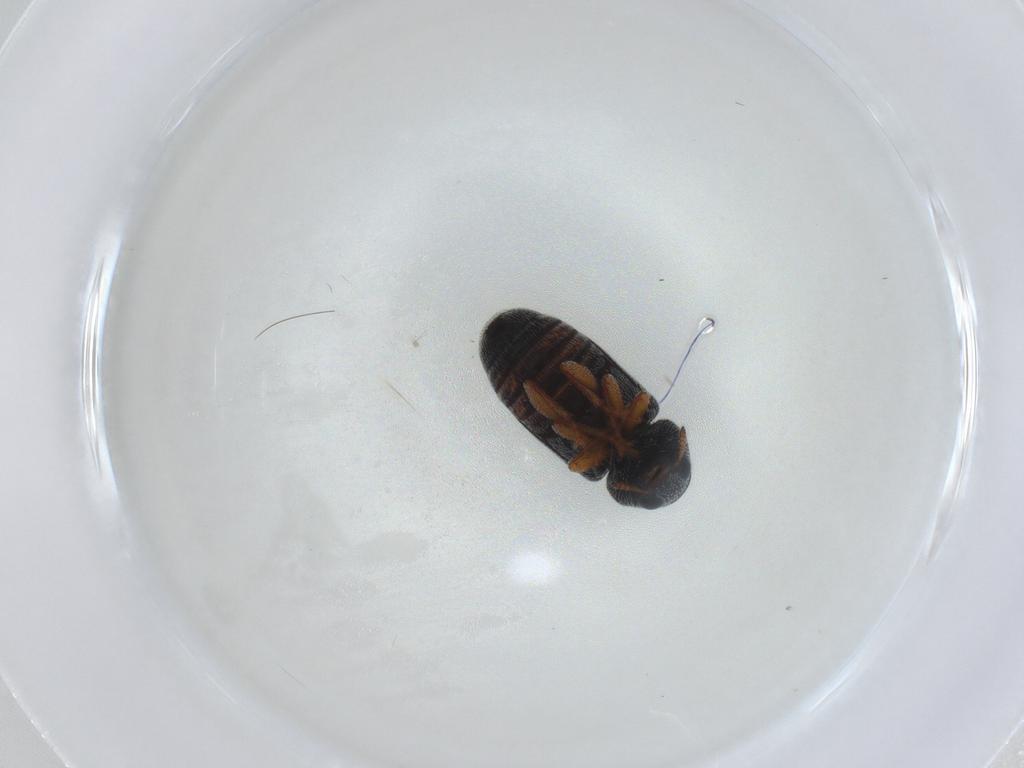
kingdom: Animalia
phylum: Arthropoda
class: Insecta
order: Coleoptera
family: Anthribidae
